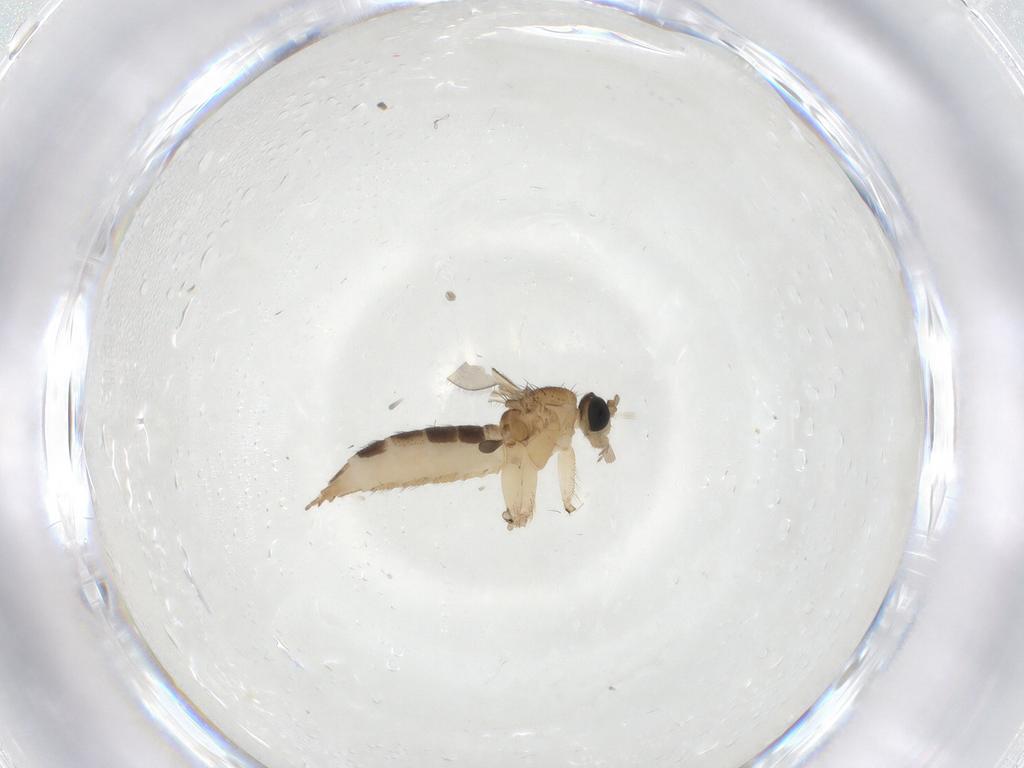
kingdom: Animalia
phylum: Arthropoda
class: Insecta
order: Diptera
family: Sciaridae
